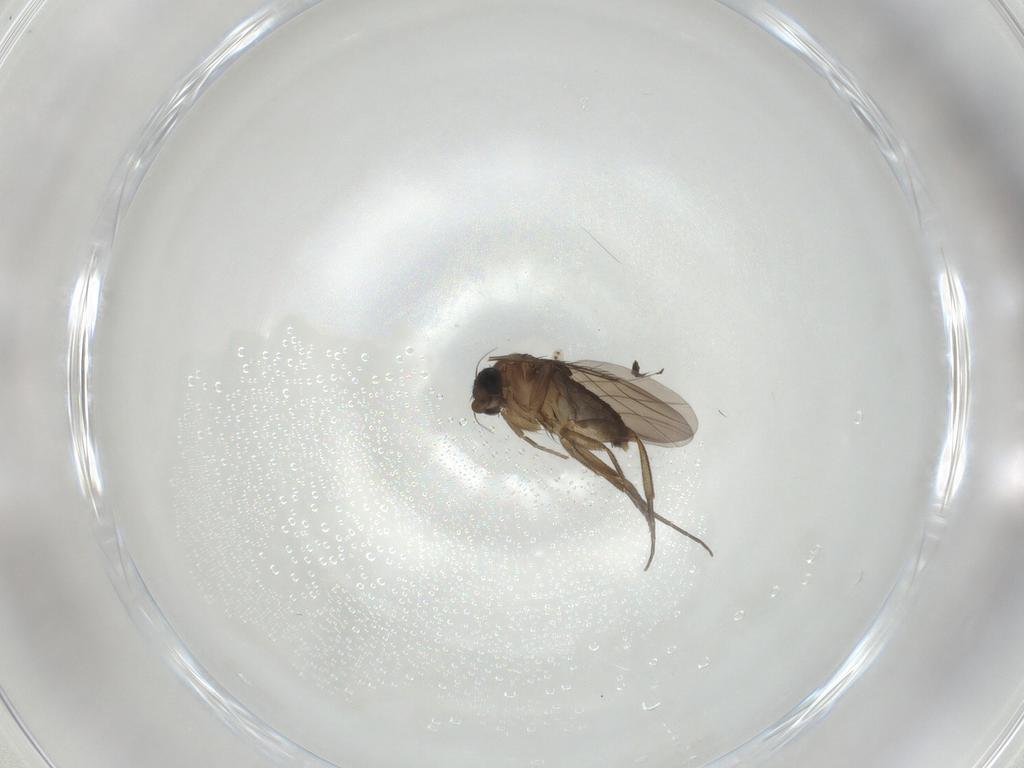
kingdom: Animalia
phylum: Arthropoda
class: Insecta
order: Diptera
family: Phoridae
